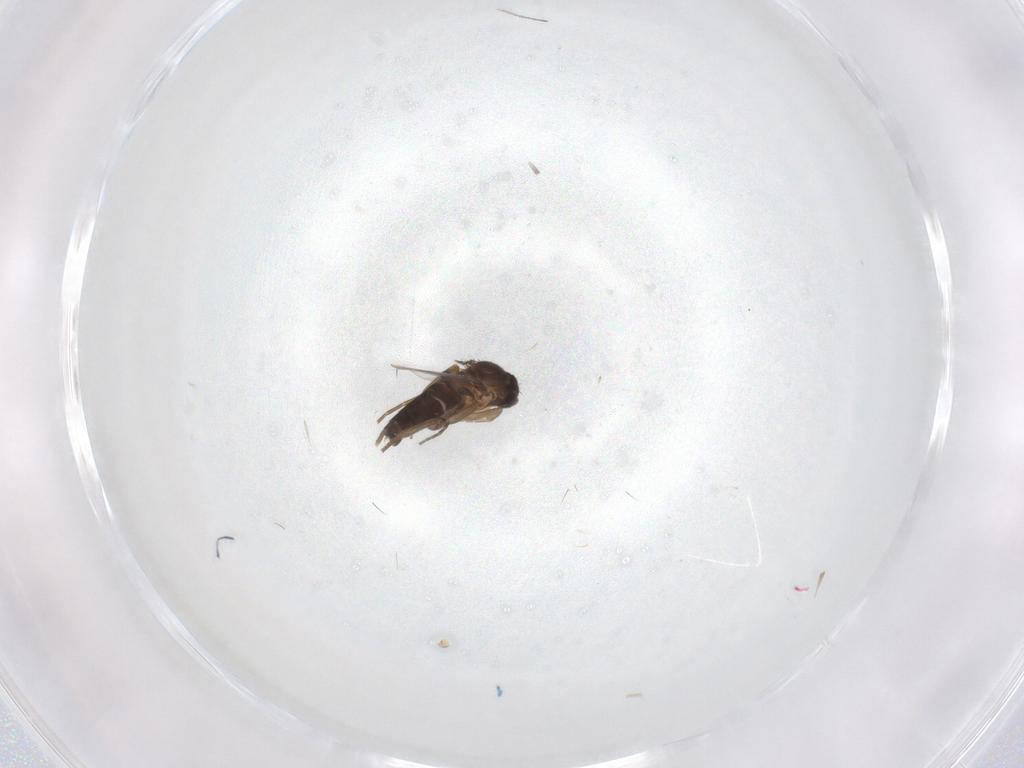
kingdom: Animalia
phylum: Arthropoda
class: Insecta
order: Diptera
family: Phoridae
